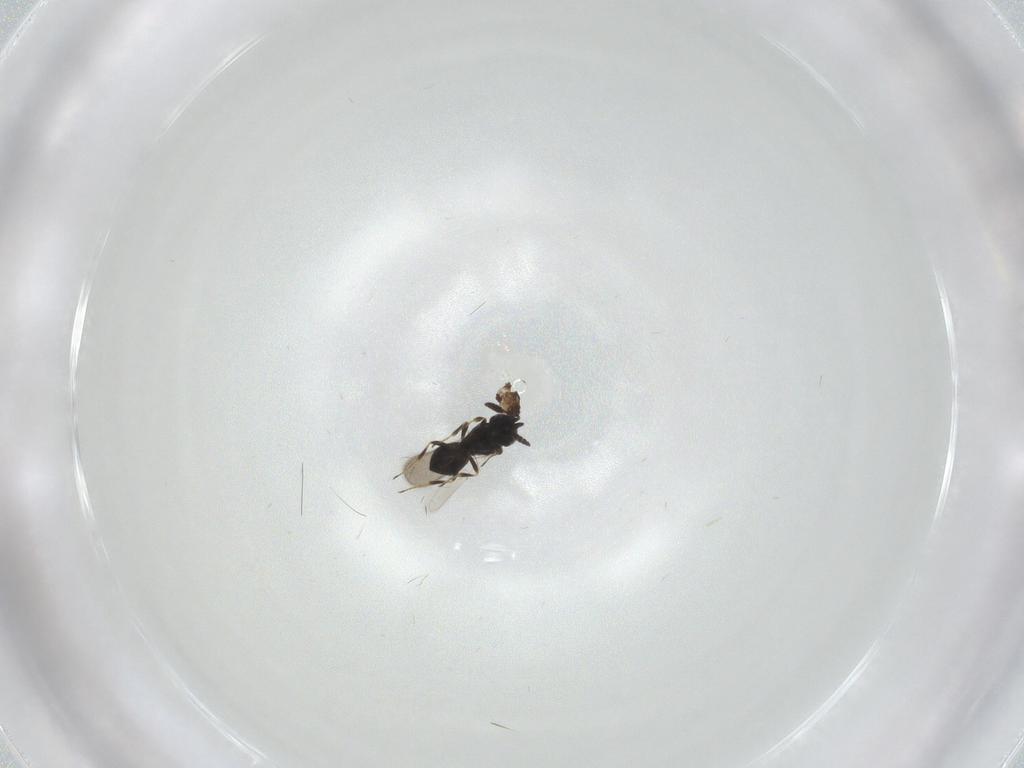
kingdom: Animalia
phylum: Arthropoda
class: Insecta
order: Hymenoptera
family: Scelionidae
